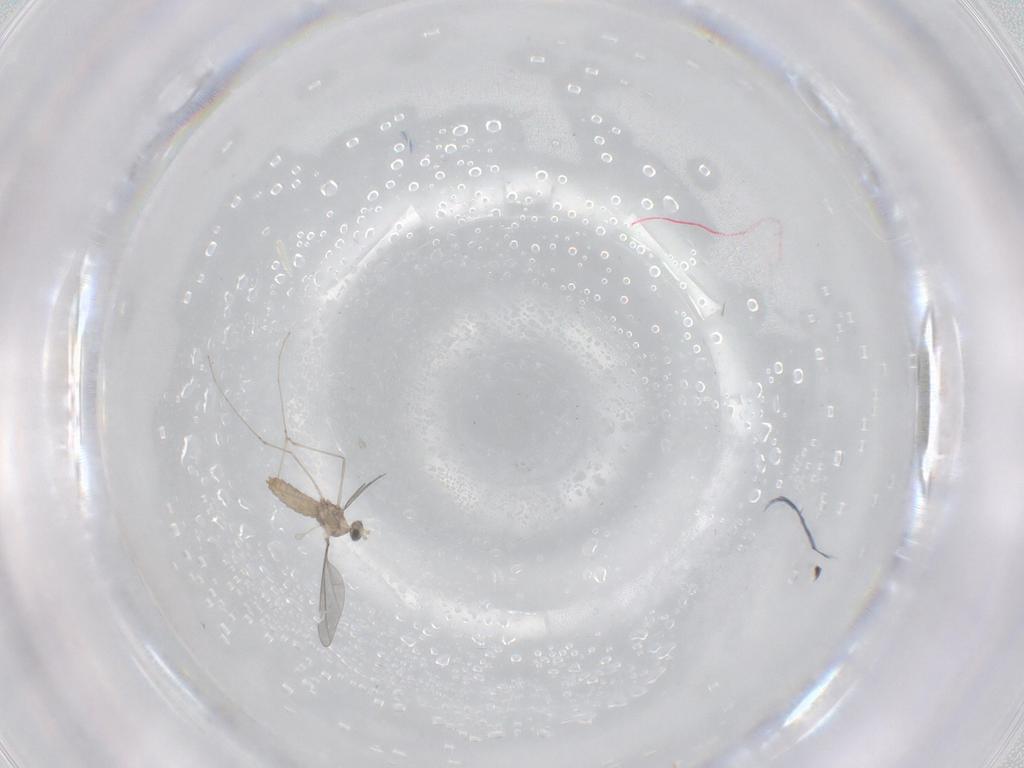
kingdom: Animalia
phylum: Arthropoda
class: Insecta
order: Diptera
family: Cecidomyiidae
